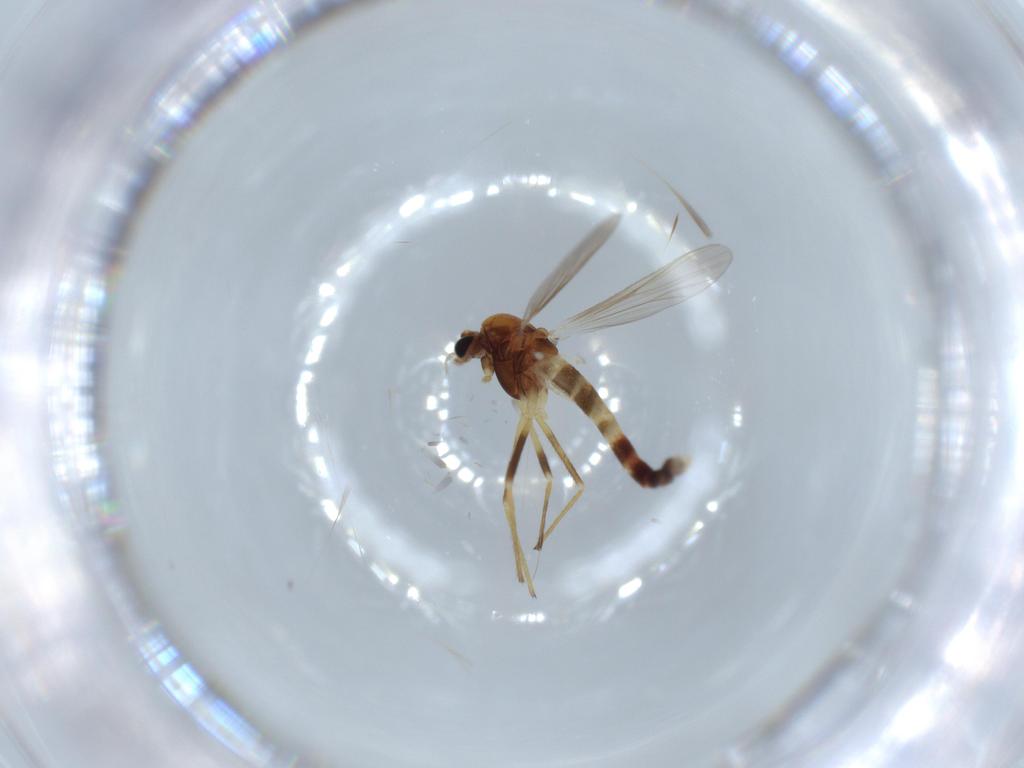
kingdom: Animalia
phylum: Arthropoda
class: Insecta
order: Diptera
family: Chironomidae
